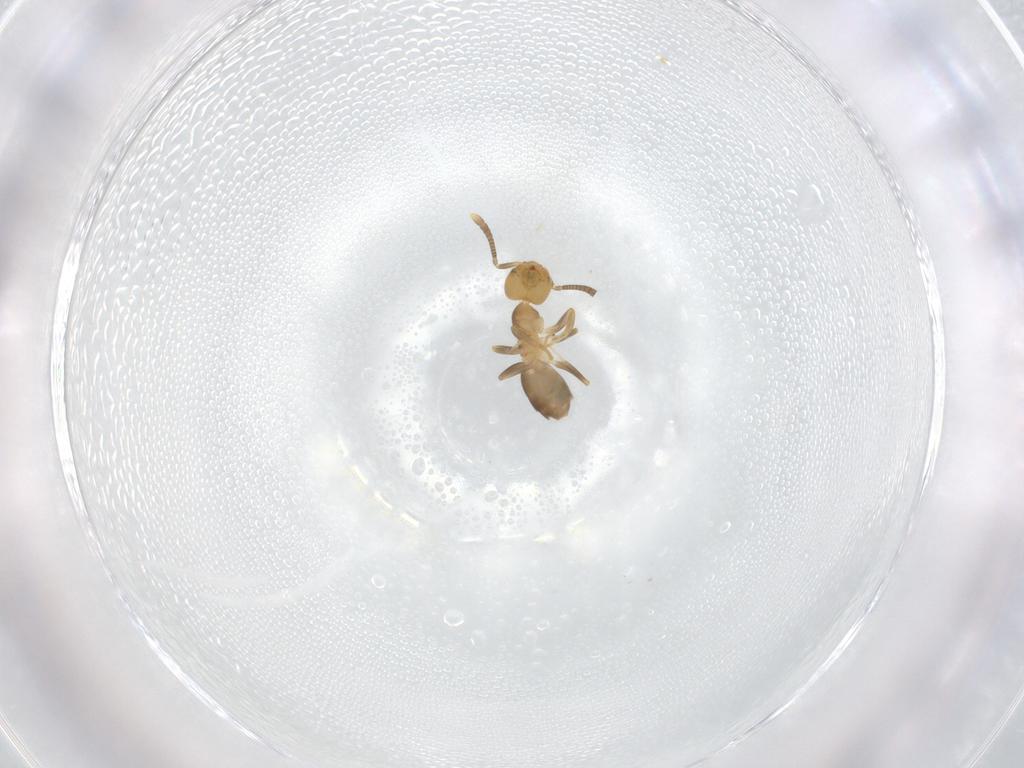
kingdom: Animalia
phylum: Arthropoda
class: Insecta
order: Hymenoptera
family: Formicidae
